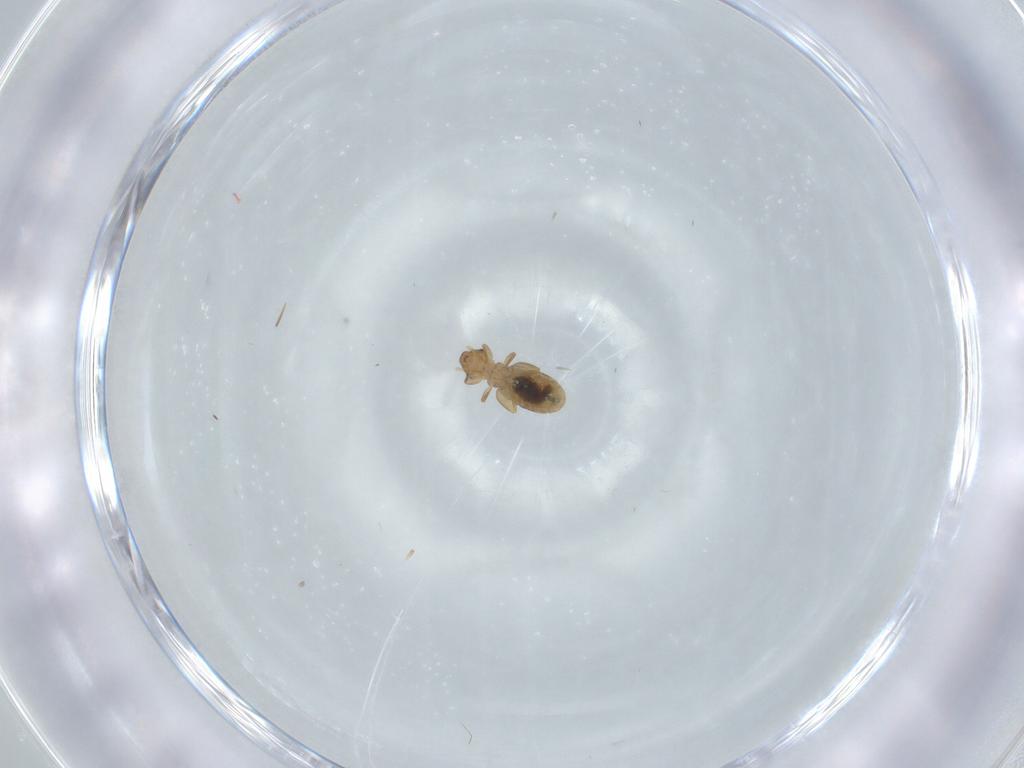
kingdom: Animalia
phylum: Arthropoda
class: Insecta
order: Psocodea
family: Liposcelididae
